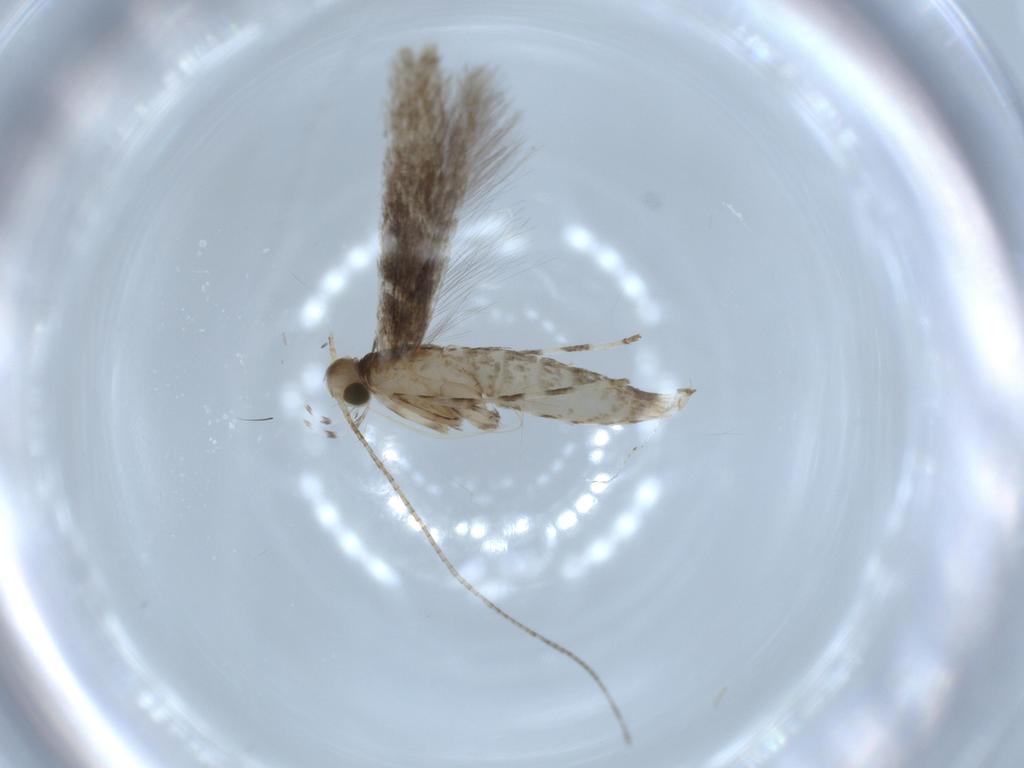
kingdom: Animalia
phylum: Arthropoda
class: Insecta
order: Lepidoptera
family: Gracillariidae
